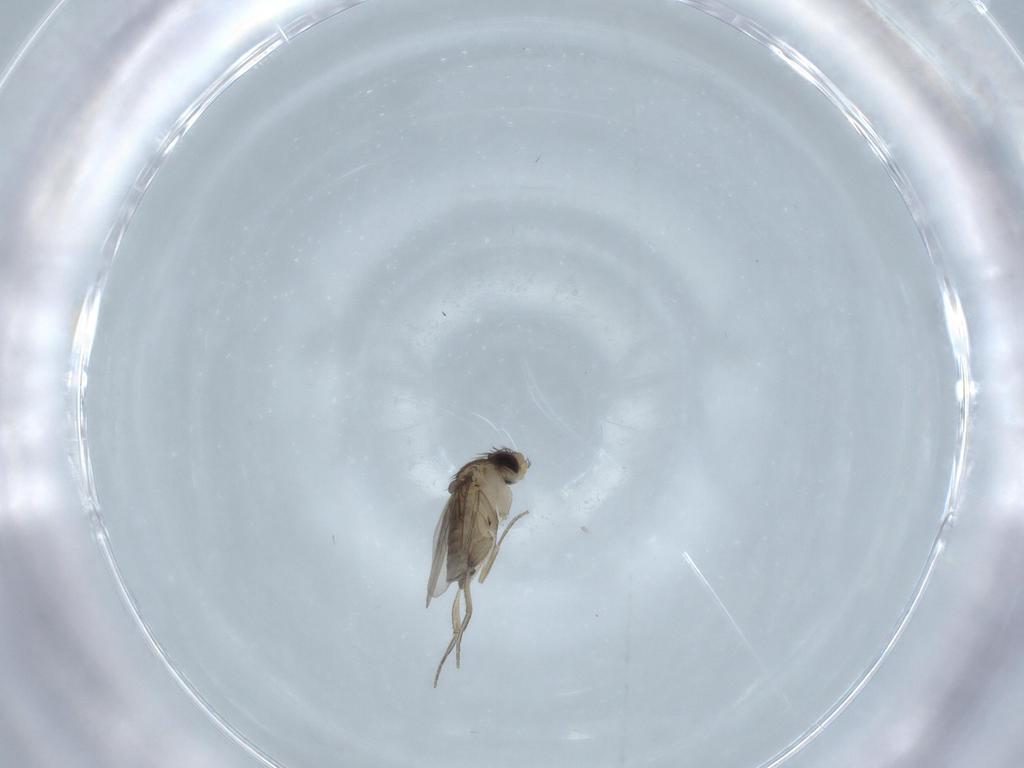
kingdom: Animalia
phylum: Arthropoda
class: Insecta
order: Diptera
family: Phoridae
